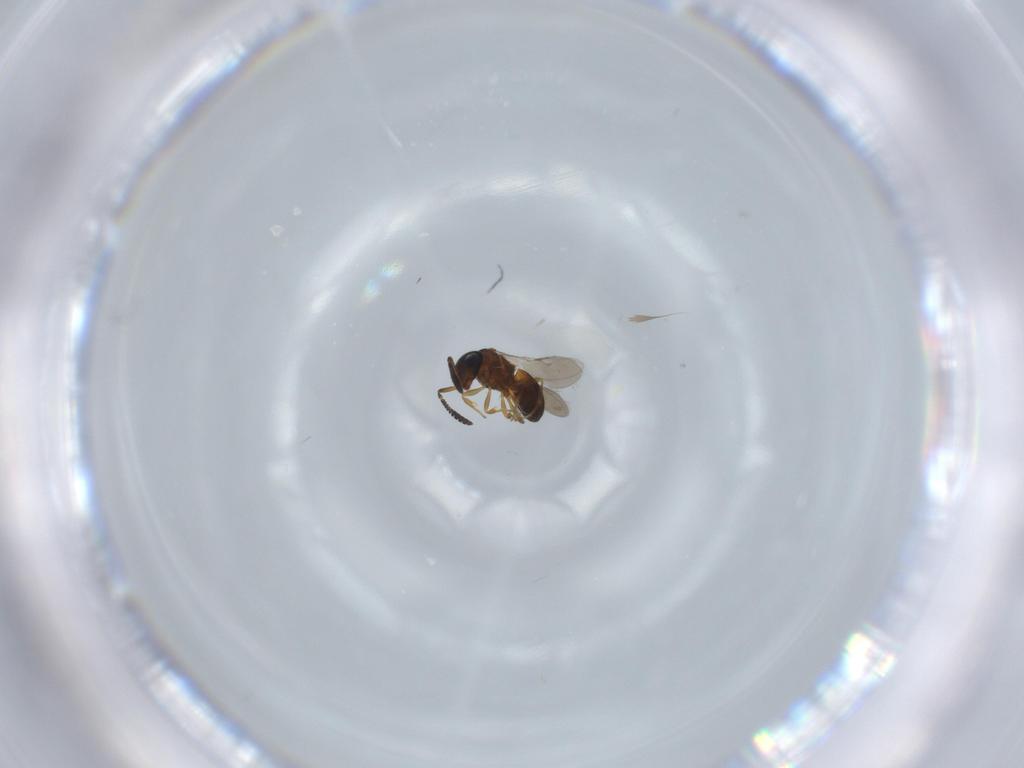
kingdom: Animalia
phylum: Arthropoda
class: Insecta
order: Hymenoptera
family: Scelionidae
